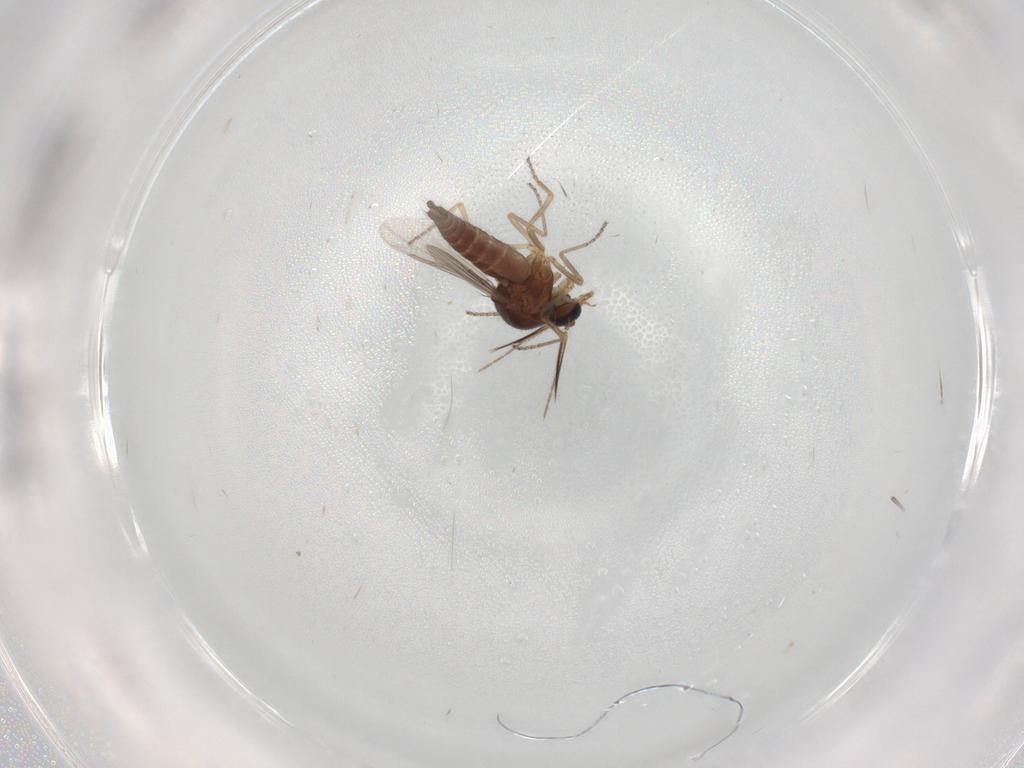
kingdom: Animalia
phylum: Arthropoda
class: Insecta
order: Diptera
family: Ceratopogonidae
